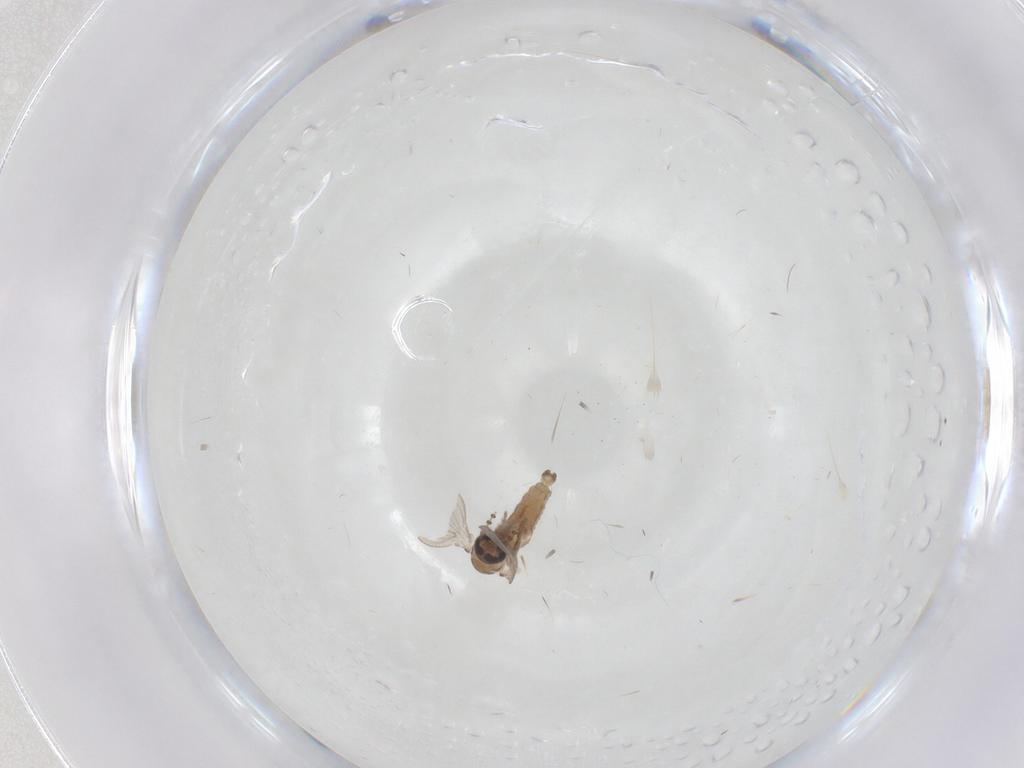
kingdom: Animalia
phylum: Arthropoda
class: Insecta
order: Diptera
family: Psychodidae
